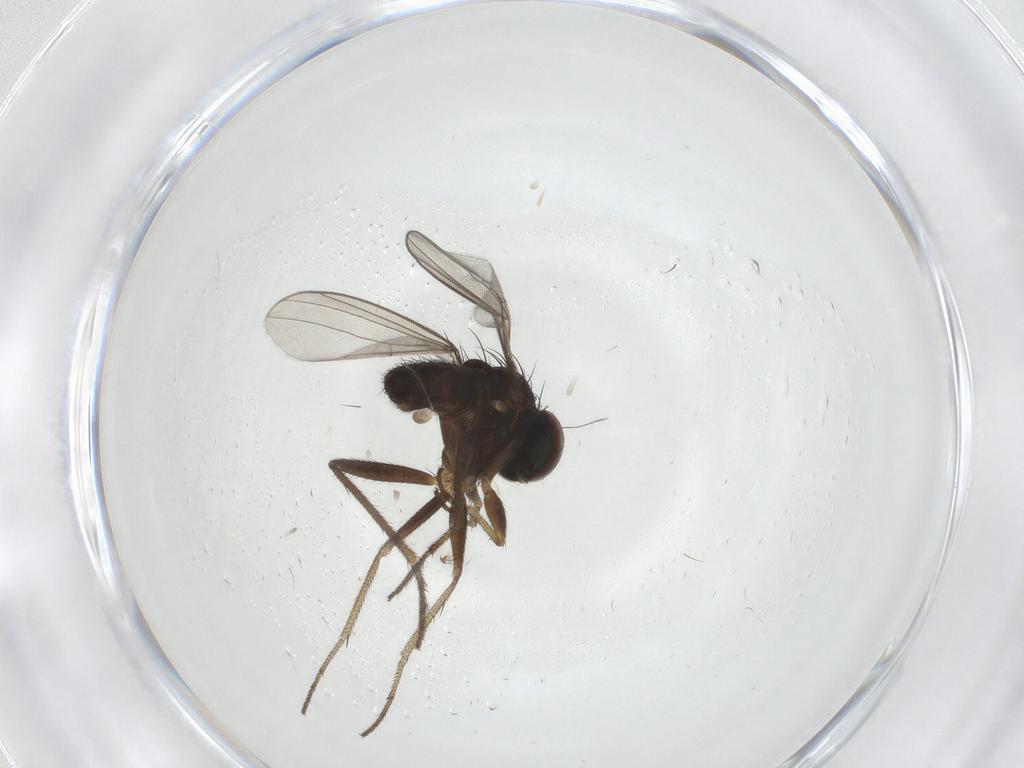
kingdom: Animalia
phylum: Arthropoda
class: Insecta
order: Diptera
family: Dolichopodidae
